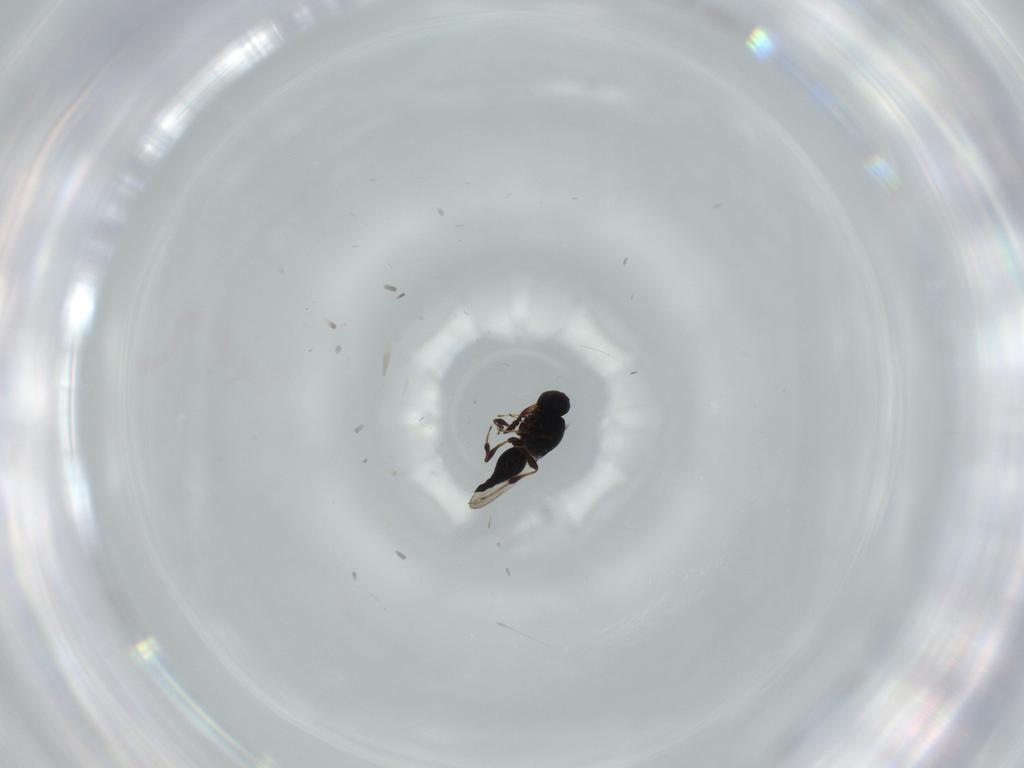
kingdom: Animalia
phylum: Arthropoda
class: Insecta
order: Hymenoptera
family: Platygastridae
